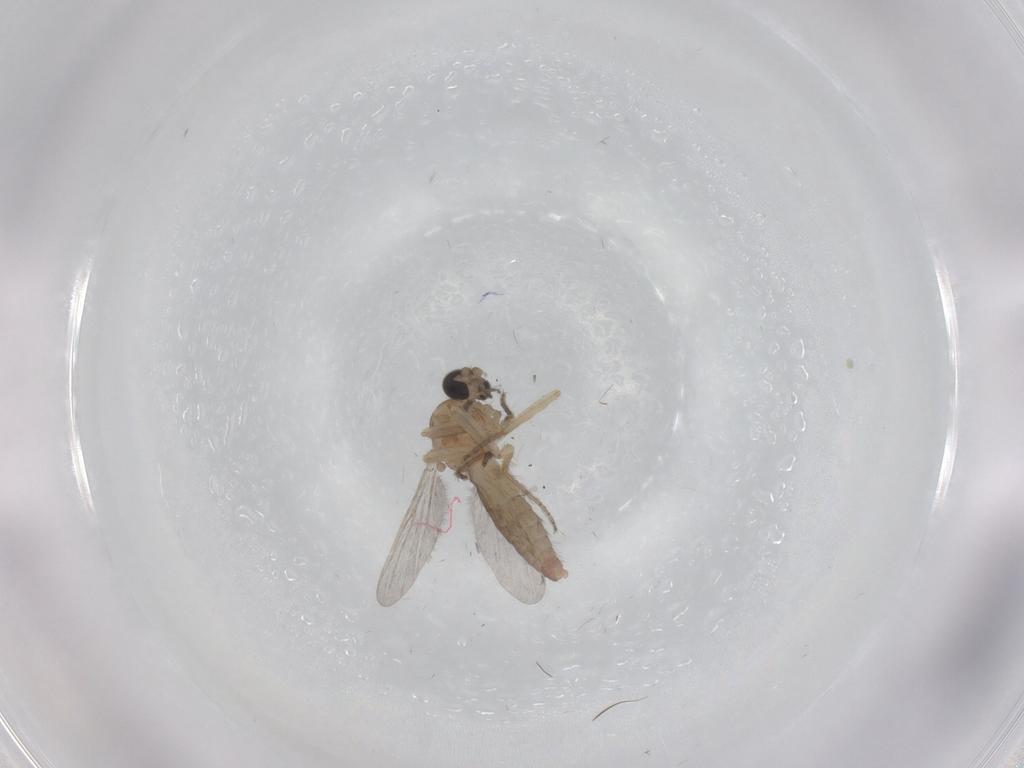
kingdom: Animalia
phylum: Arthropoda
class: Insecta
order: Diptera
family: Ceratopogonidae
